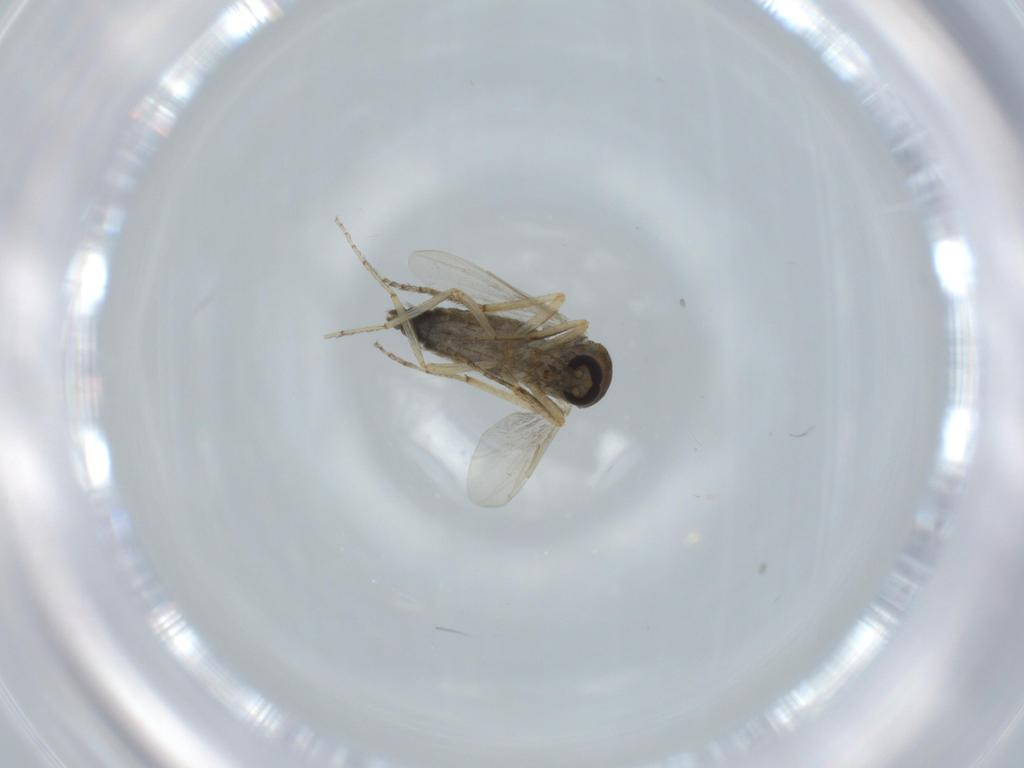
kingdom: Animalia
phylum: Arthropoda
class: Insecta
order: Diptera
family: Ceratopogonidae
